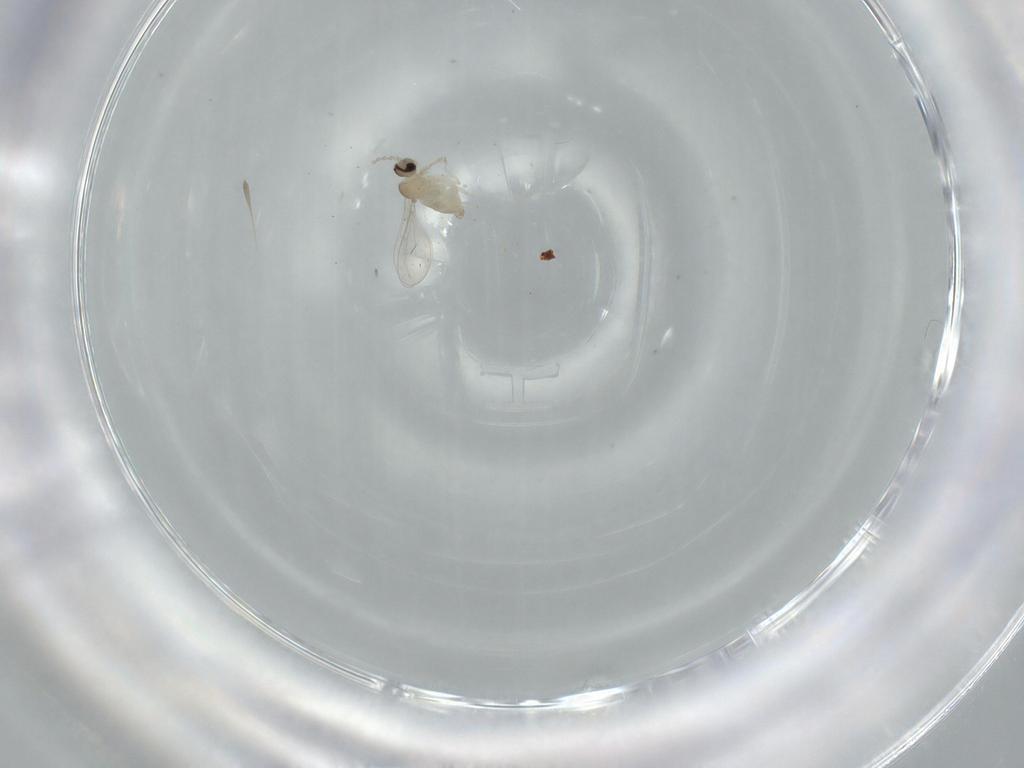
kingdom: Animalia
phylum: Arthropoda
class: Insecta
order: Diptera
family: Cecidomyiidae
